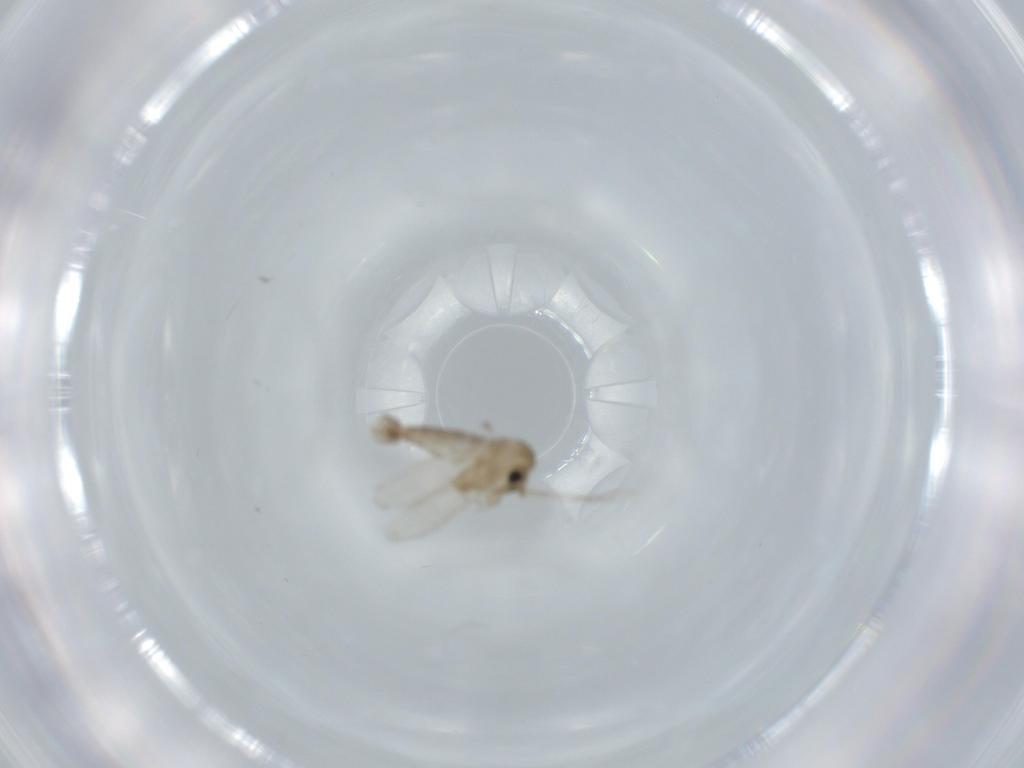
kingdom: Animalia
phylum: Arthropoda
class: Insecta
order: Diptera
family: Psychodidae
